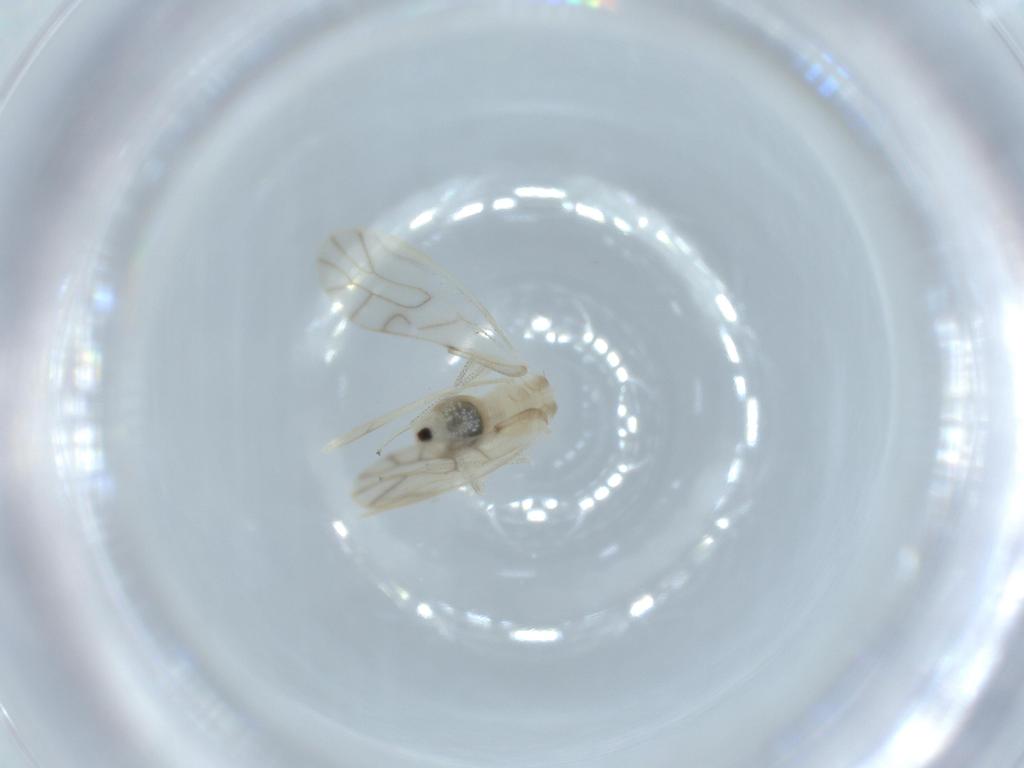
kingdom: Animalia
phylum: Arthropoda
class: Insecta
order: Psocodea
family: Caeciliusidae
